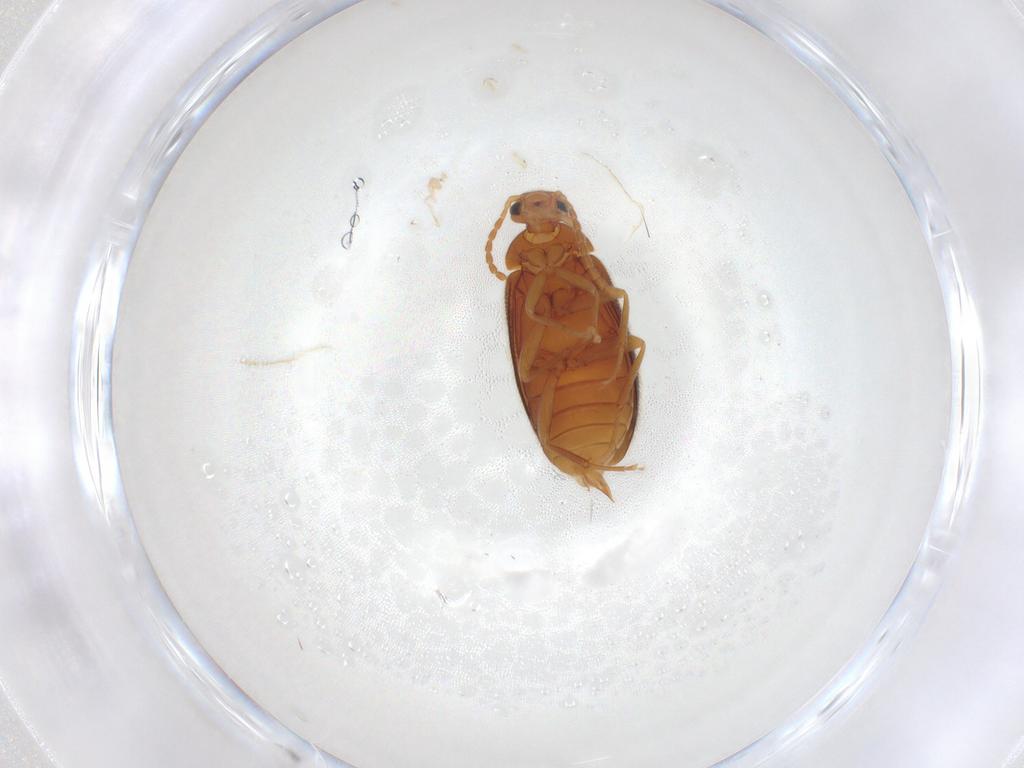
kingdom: Animalia
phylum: Arthropoda
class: Insecta
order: Coleoptera
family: Scraptiidae
